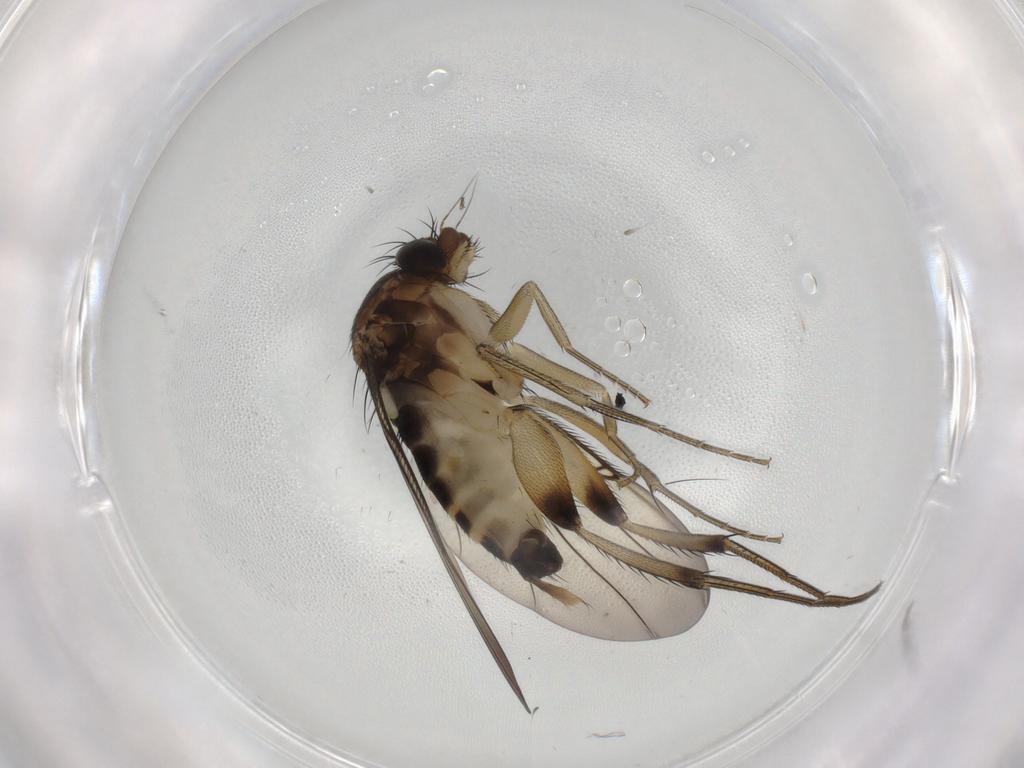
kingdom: Animalia
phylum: Arthropoda
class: Insecta
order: Diptera
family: Phoridae
